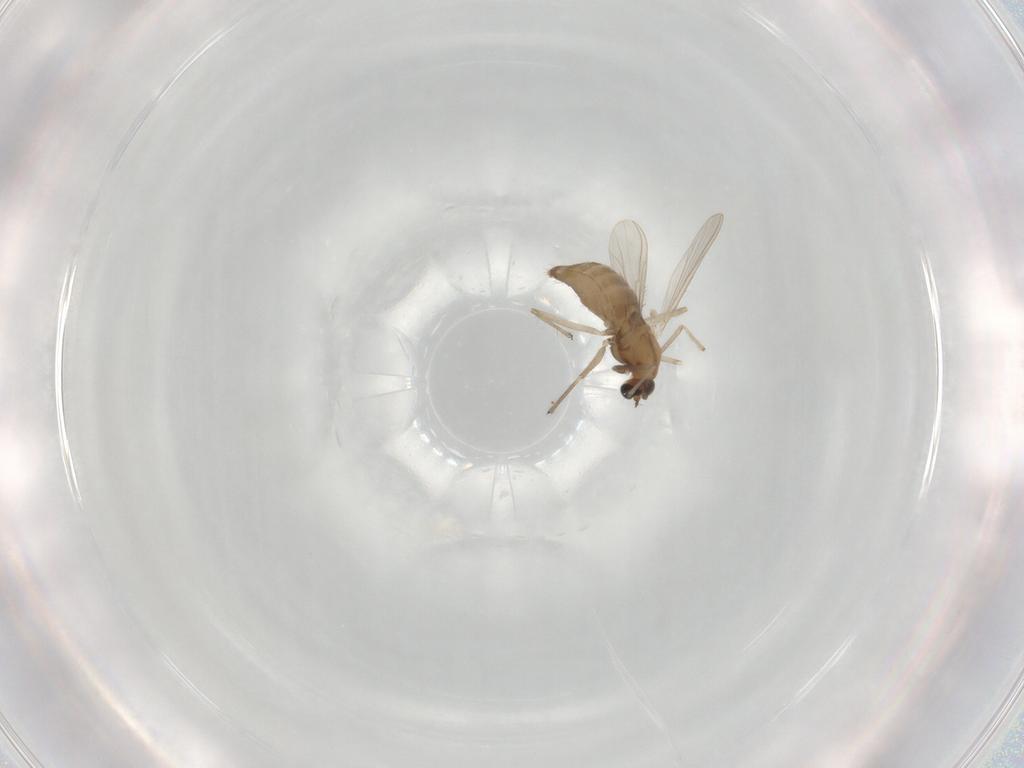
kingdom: Animalia
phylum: Arthropoda
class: Insecta
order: Diptera
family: Chironomidae
